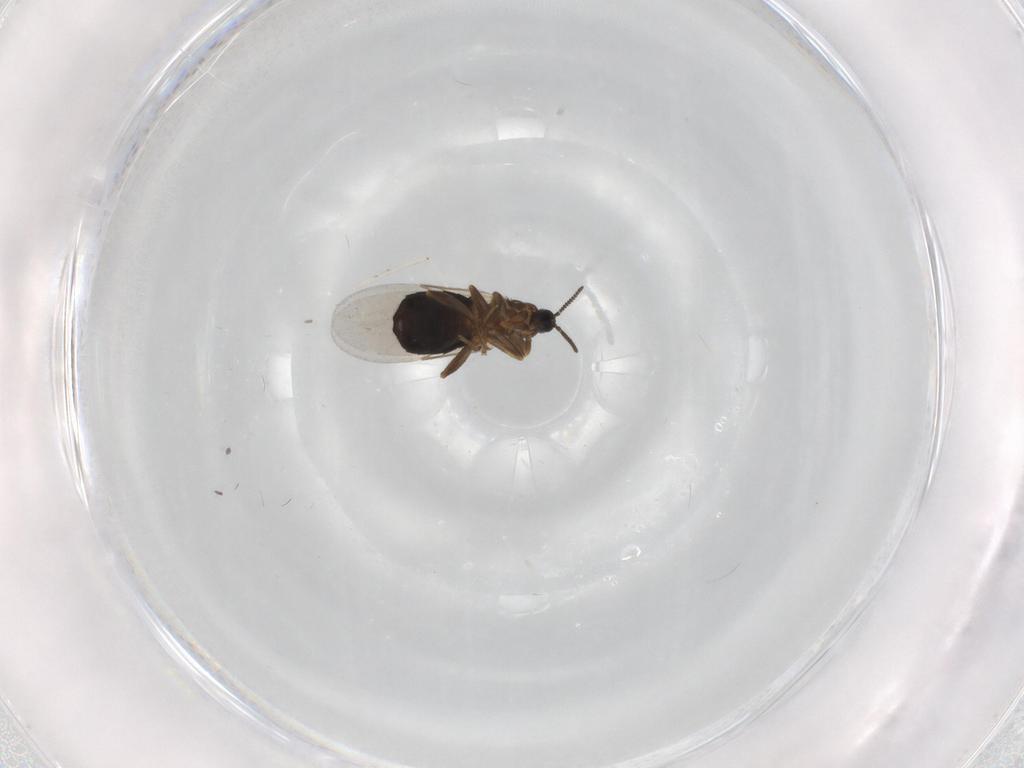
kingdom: Animalia
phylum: Arthropoda
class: Insecta
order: Diptera
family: Scatopsidae
